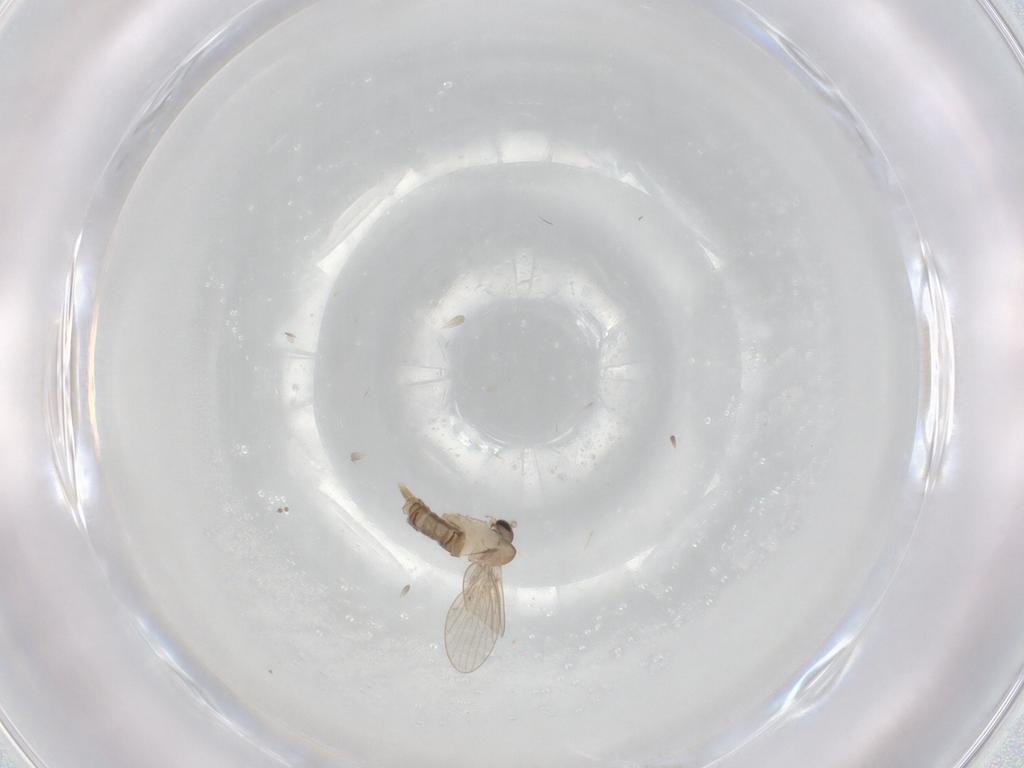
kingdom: Animalia
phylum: Arthropoda
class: Insecta
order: Diptera
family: Psychodidae
